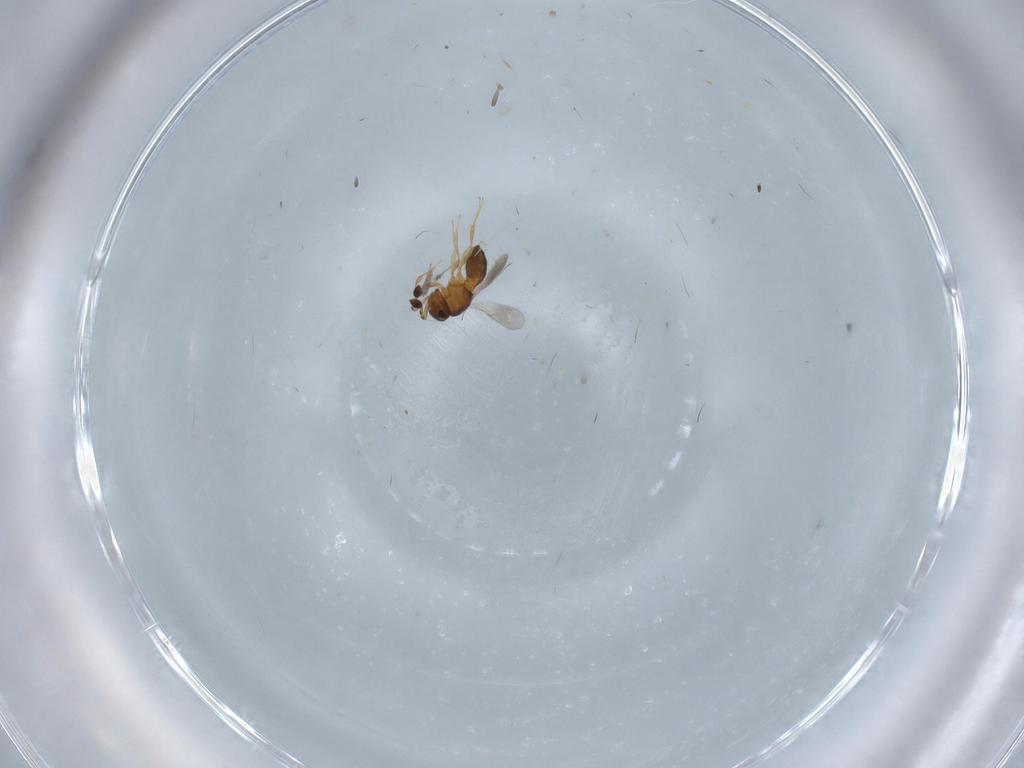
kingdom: Animalia
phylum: Arthropoda
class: Insecta
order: Hymenoptera
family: Scelionidae
